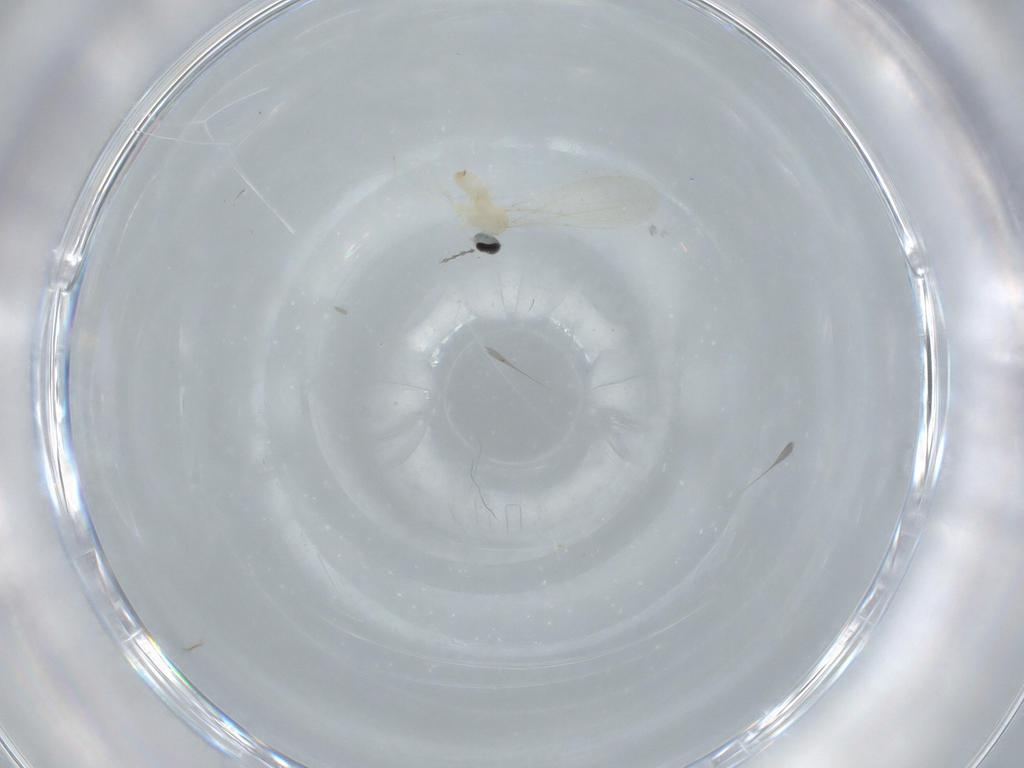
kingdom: Animalia
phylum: Arthropoda
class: Insecta
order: Diptera
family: Cecidomyiidae
